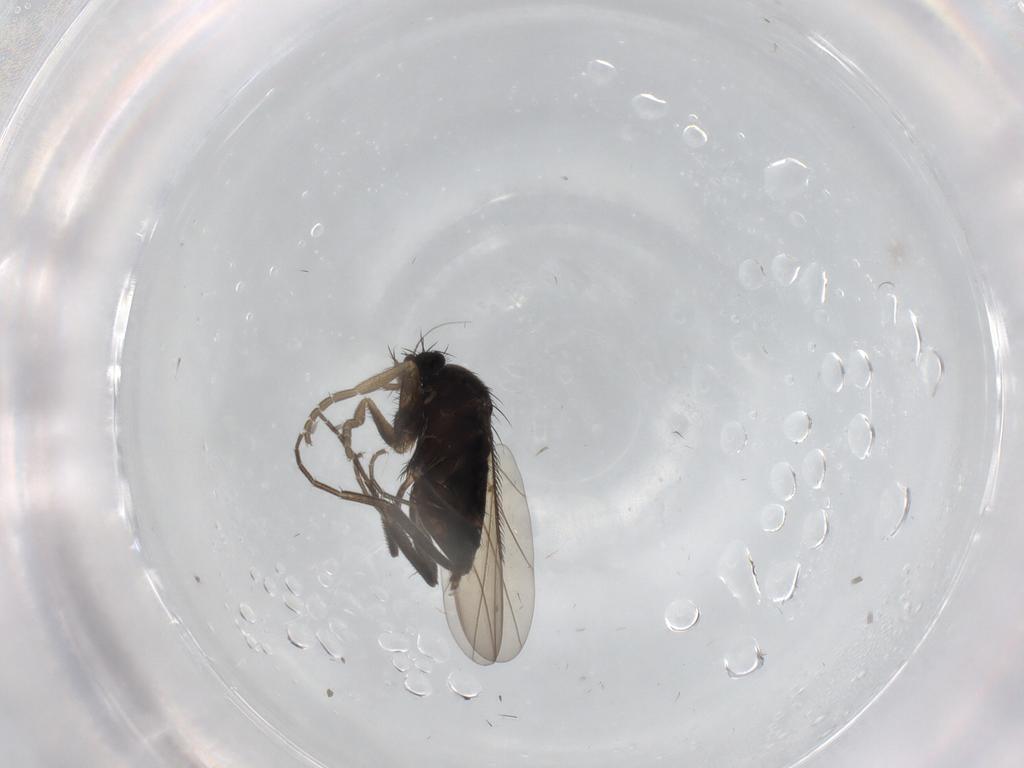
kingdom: Animalia
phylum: Arthropoda
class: Insecta
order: Diptera
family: Phoridae
